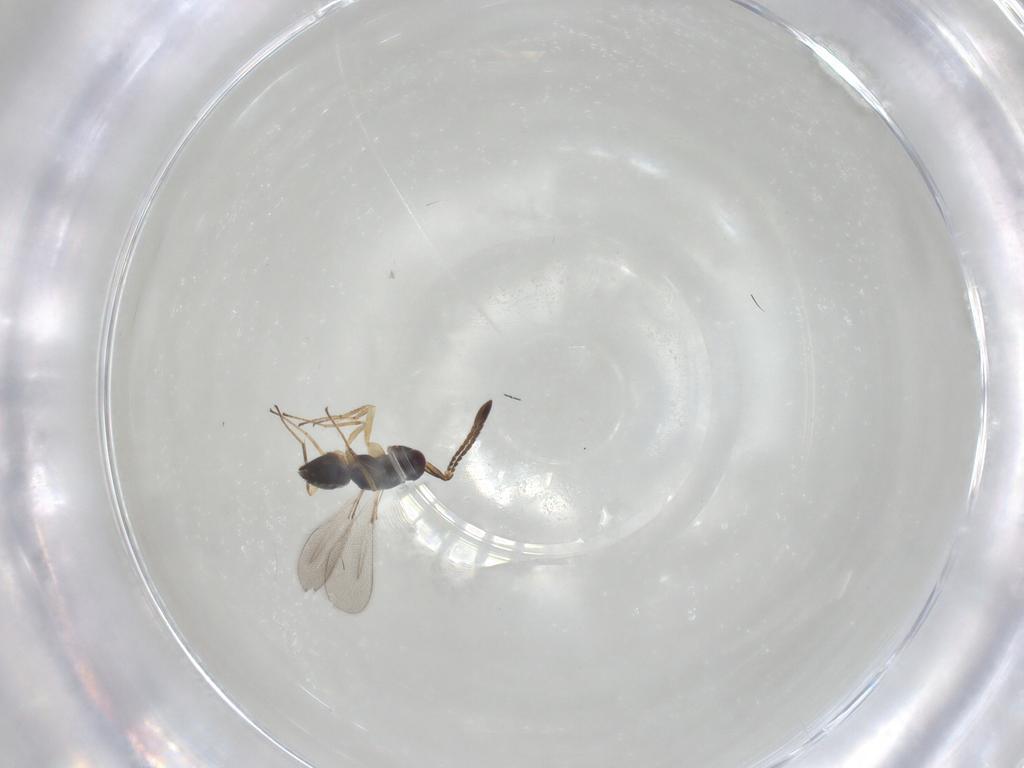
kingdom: Animalia
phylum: Arthropoda
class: Insecta
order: Hymenoptera
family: Mymaridae
